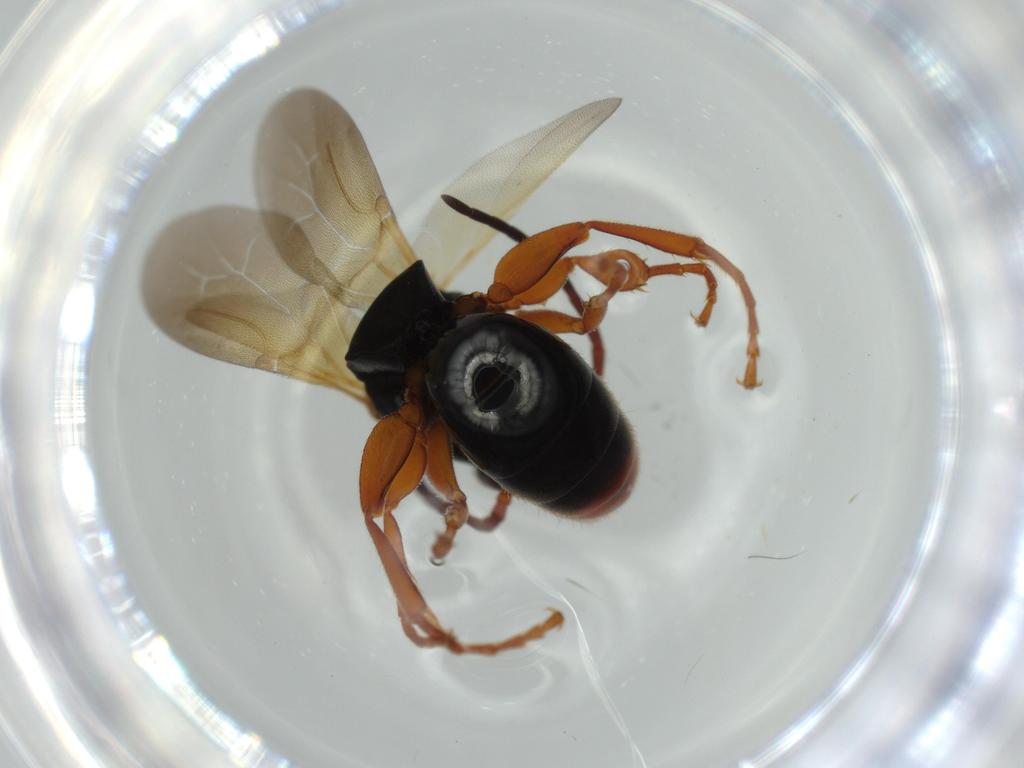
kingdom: Animalia
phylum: Arthropoda
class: Insecta
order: Hymenoptera
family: Bethylidae
